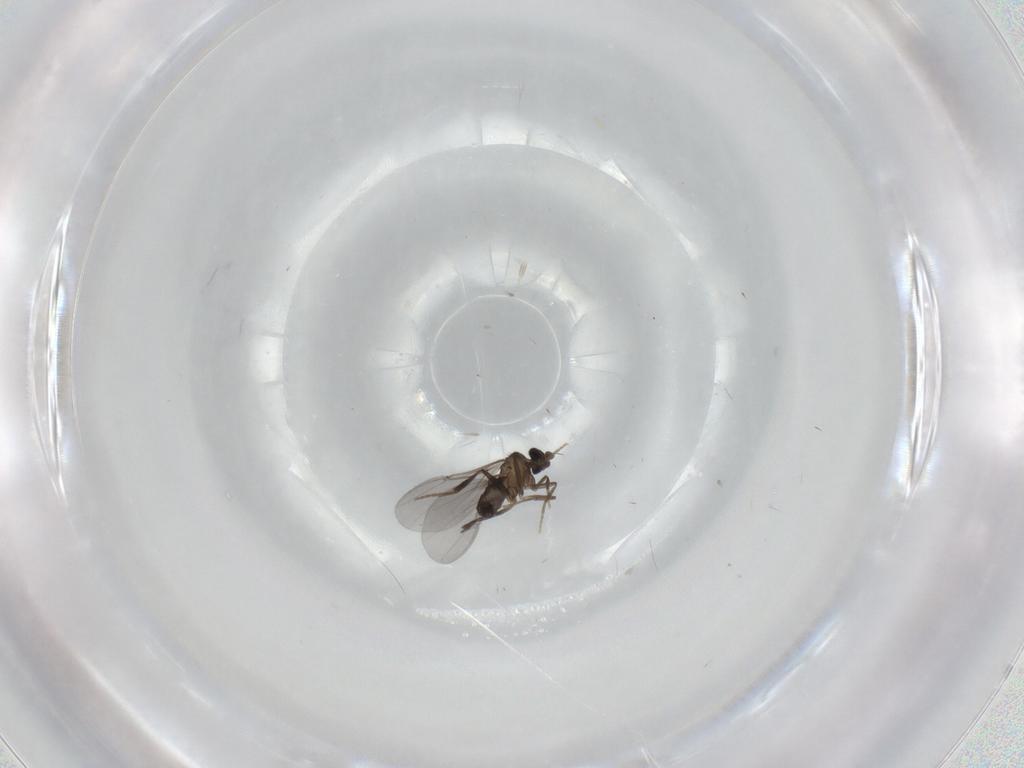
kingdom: Animalia
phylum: Arthropoda
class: Insecta
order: Diptera
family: Phoridae
